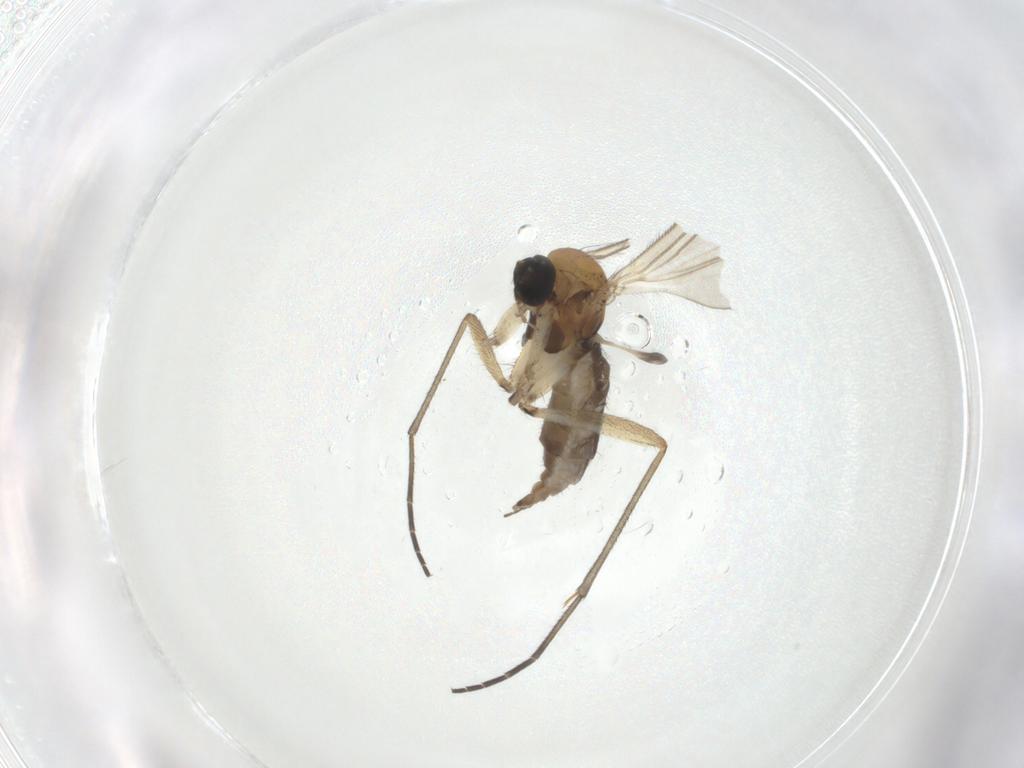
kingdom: Animalia
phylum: Arthropoda
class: Insecta
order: Diptera
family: Sciaridae
